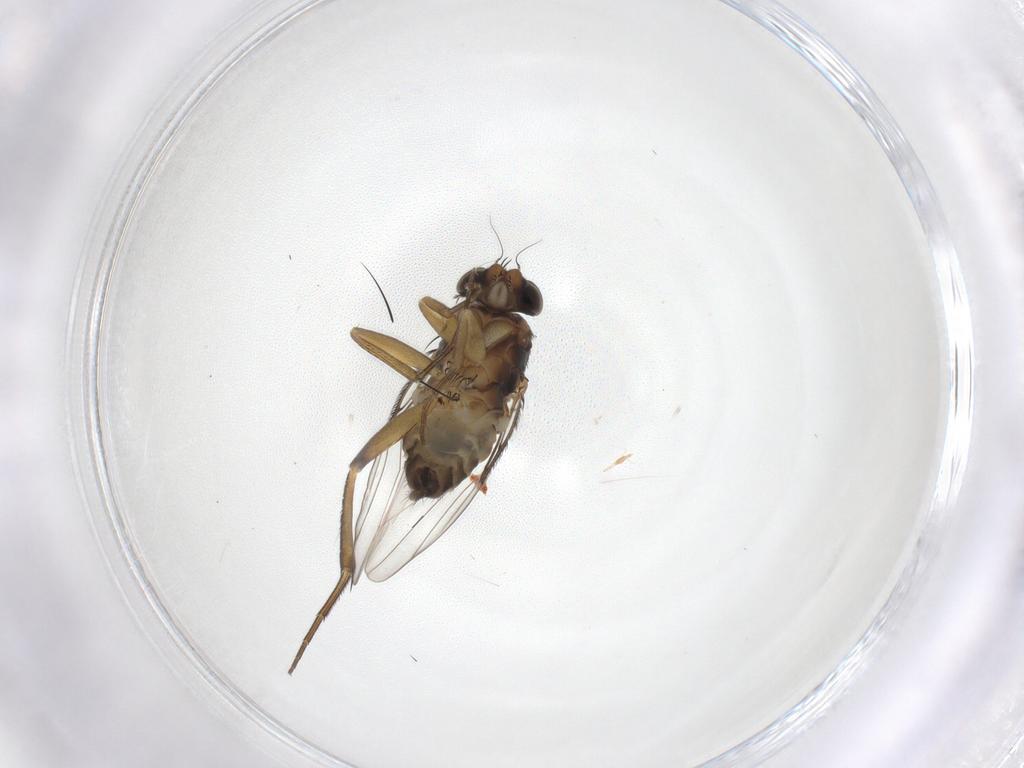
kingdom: Animalia
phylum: Arthropoda
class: Insecta
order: Diptera
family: Phoridae
